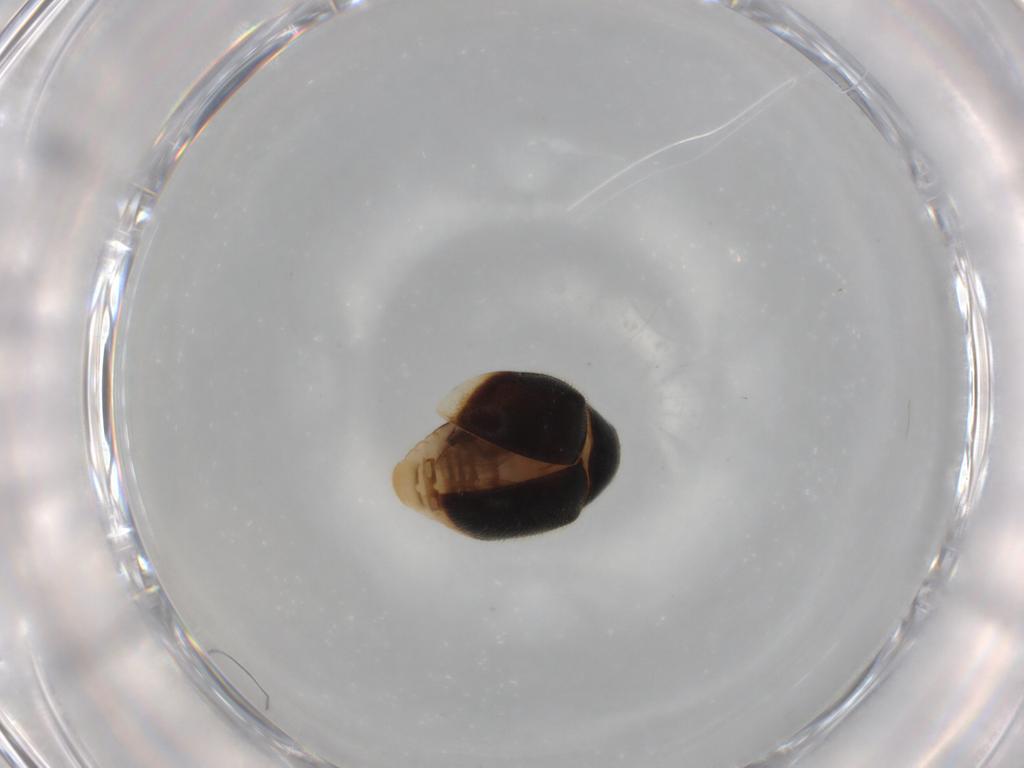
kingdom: Animalia
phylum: Arthropoda
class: Insecta
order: Coleoptera
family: Coccinellidae
